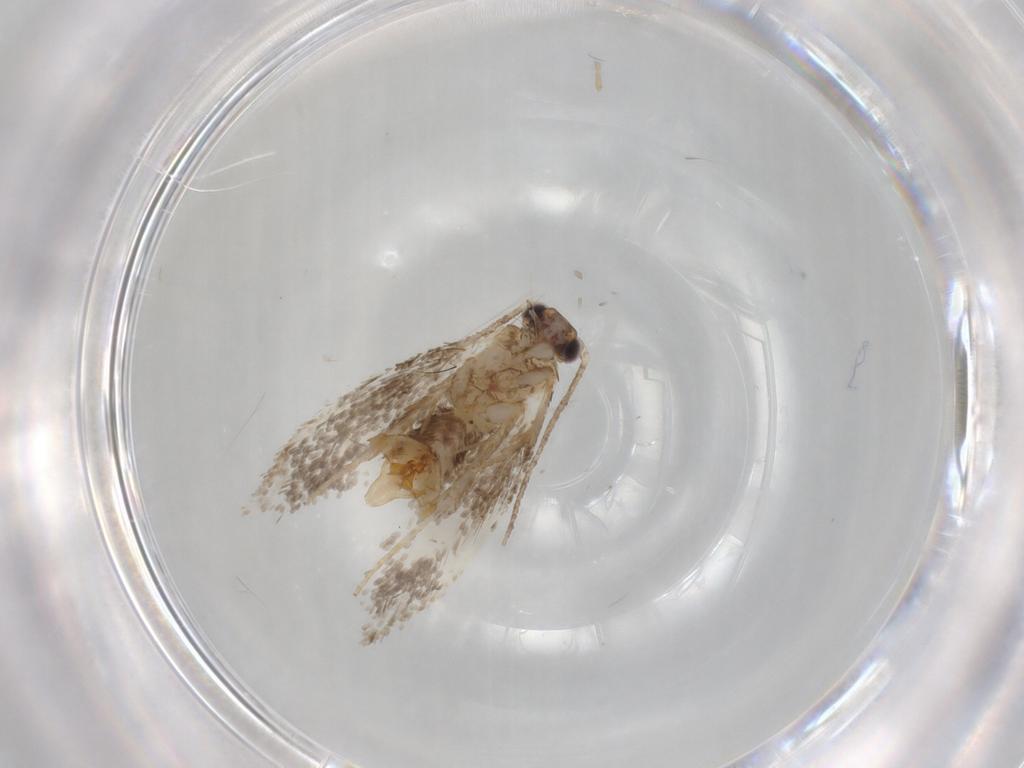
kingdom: Animalia
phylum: Arthropoda
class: Insecta
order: Lepidoptera
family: Tineidae
